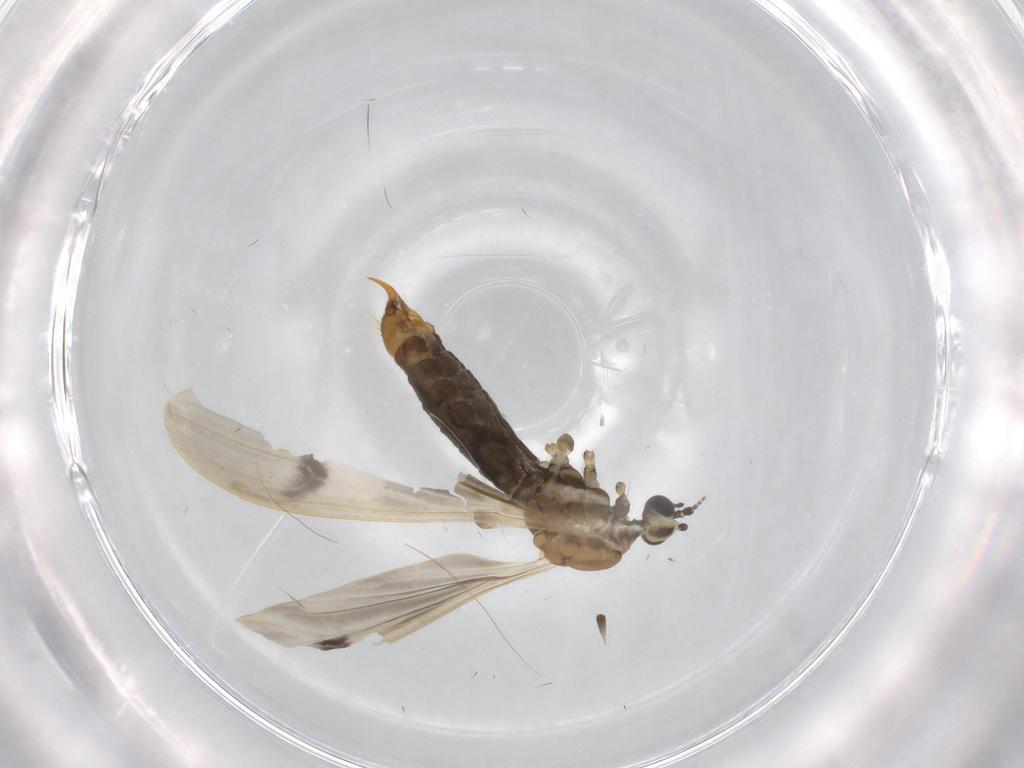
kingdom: Animalia
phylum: Arthropoda
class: Insecta
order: Diptera
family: Limoniidae
